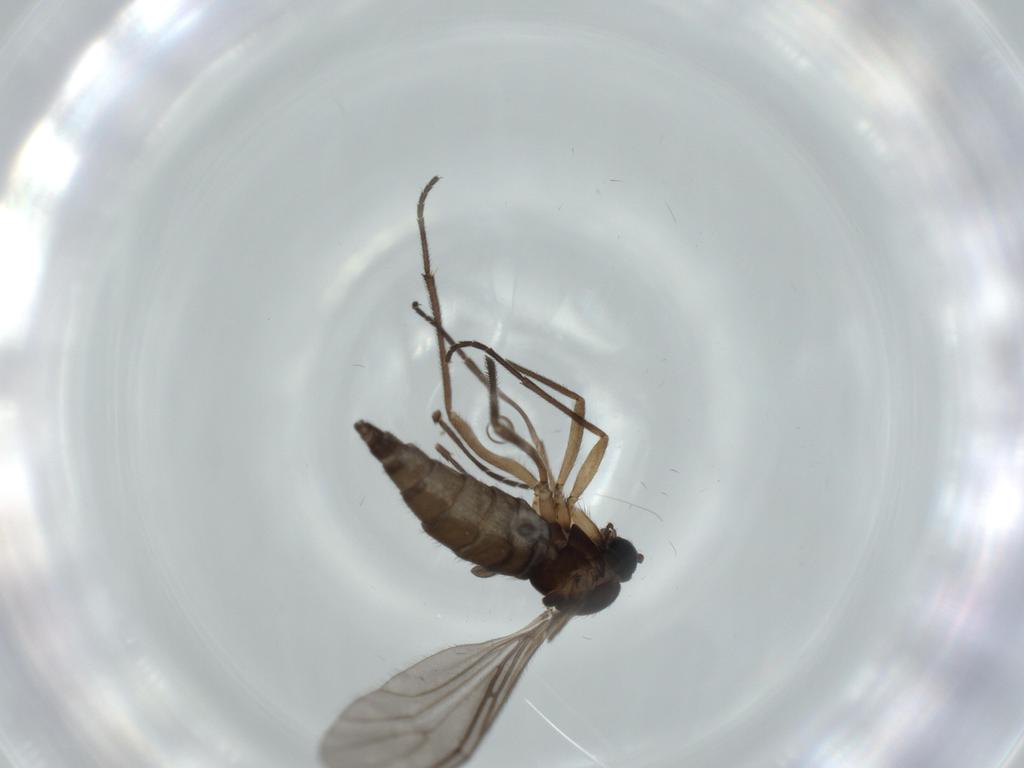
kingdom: Animalia
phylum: Arthropoda
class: Insecta
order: Diptera
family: Sciaridae
